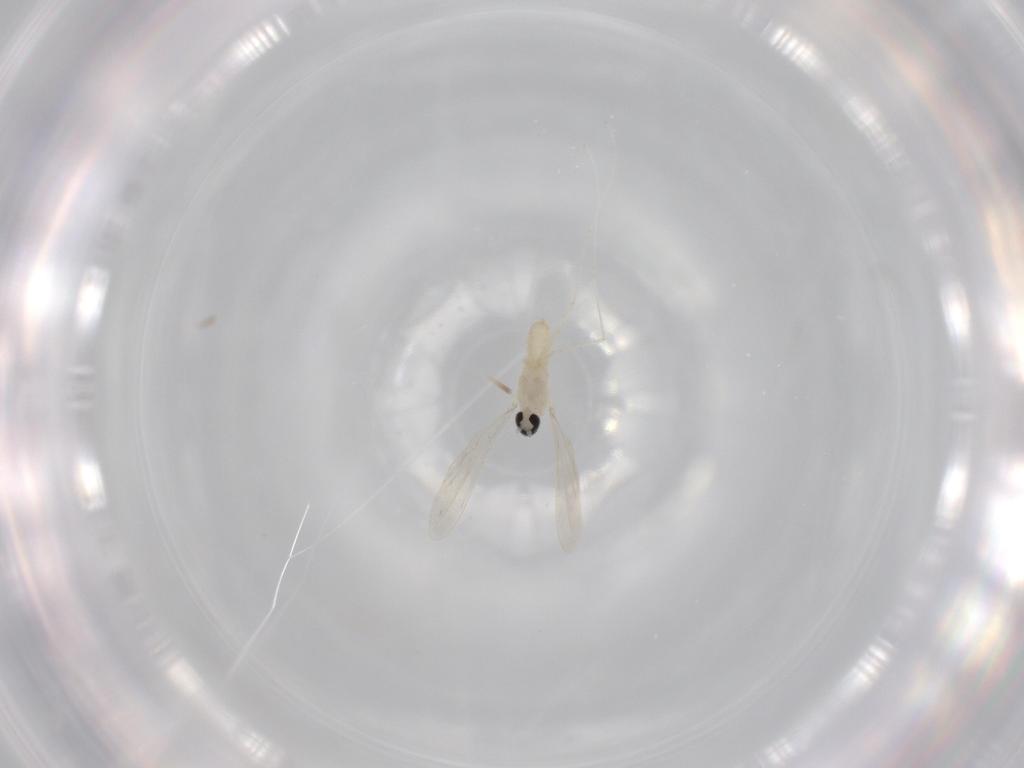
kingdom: Animalia
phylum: Arthropoda
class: Insecta
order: Diptera
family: Cecidomyiidae
